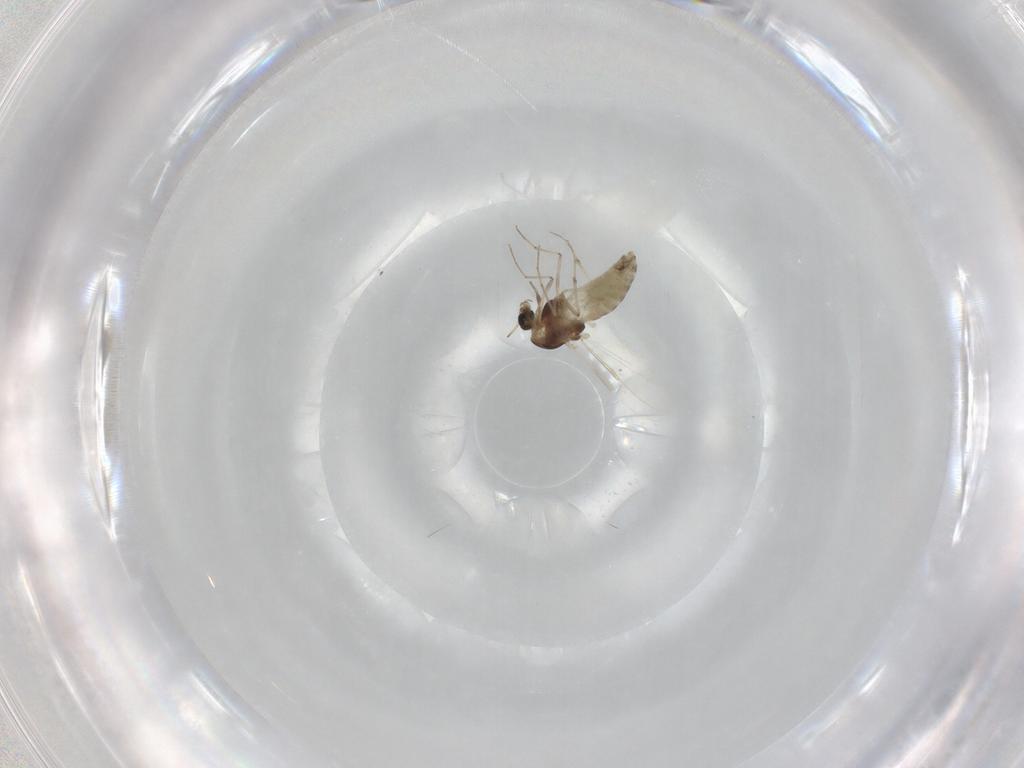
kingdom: Animalia
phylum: Arthropoda
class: Insecta
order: Diptera
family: Chironomidae
